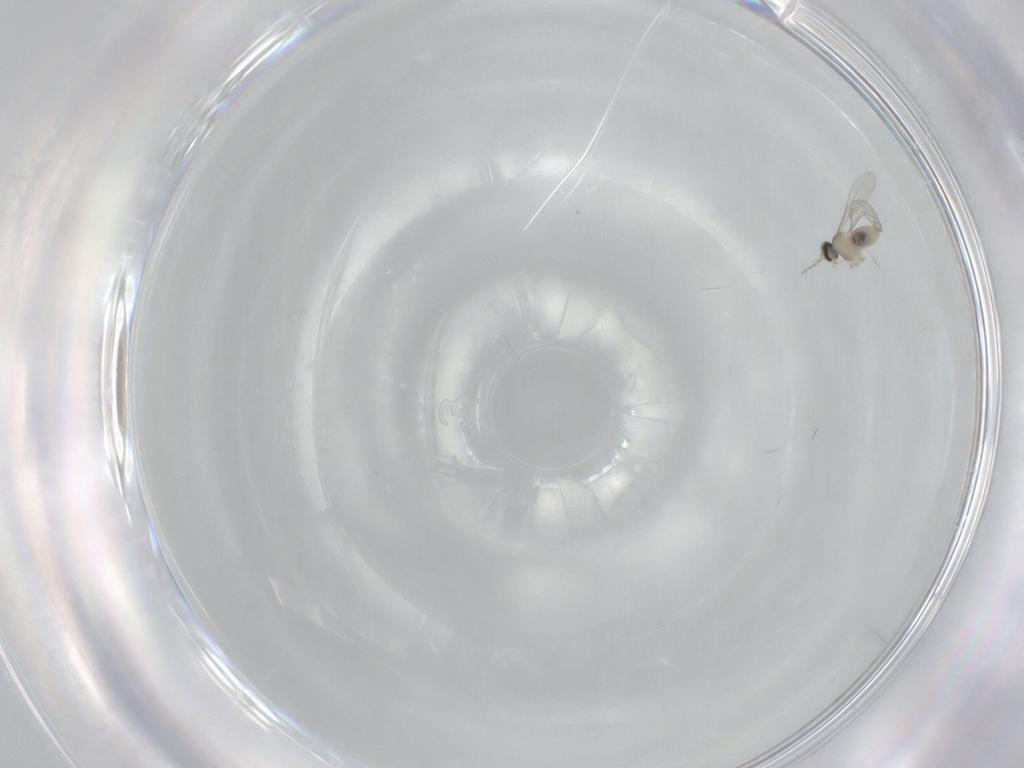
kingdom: Animalia
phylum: Arthropoda
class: Insecta
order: Diptera
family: Cecidomyiidae
